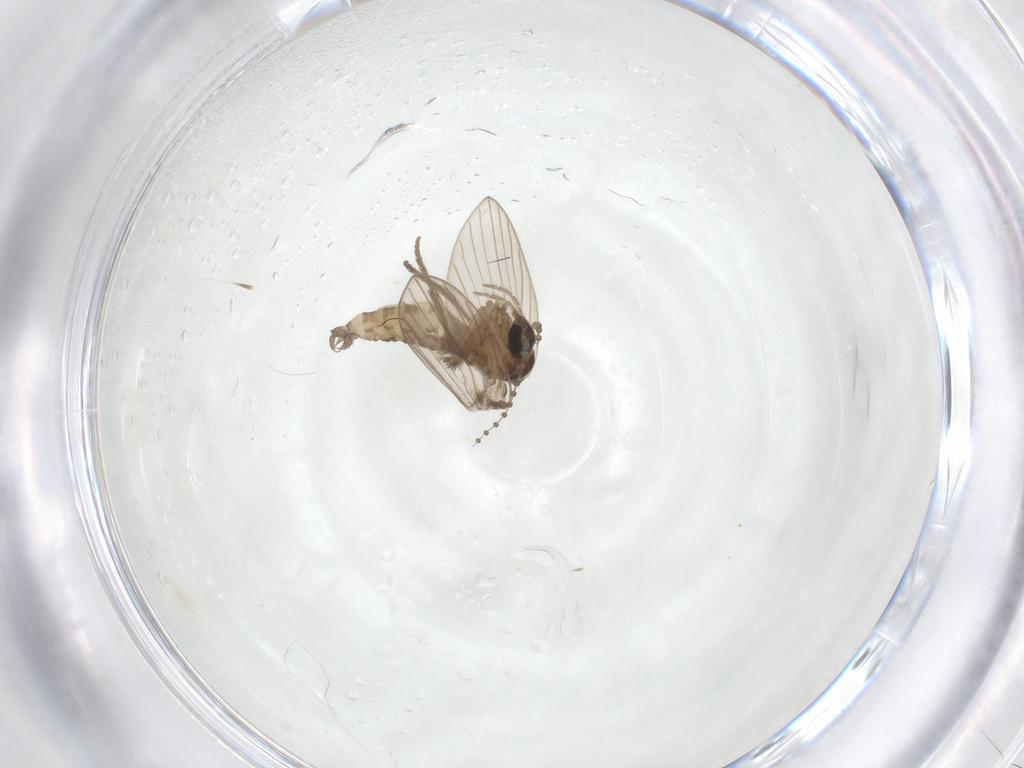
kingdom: Animalia
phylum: Arthropoda
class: Insecta
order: Diptera
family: Psychodidae
